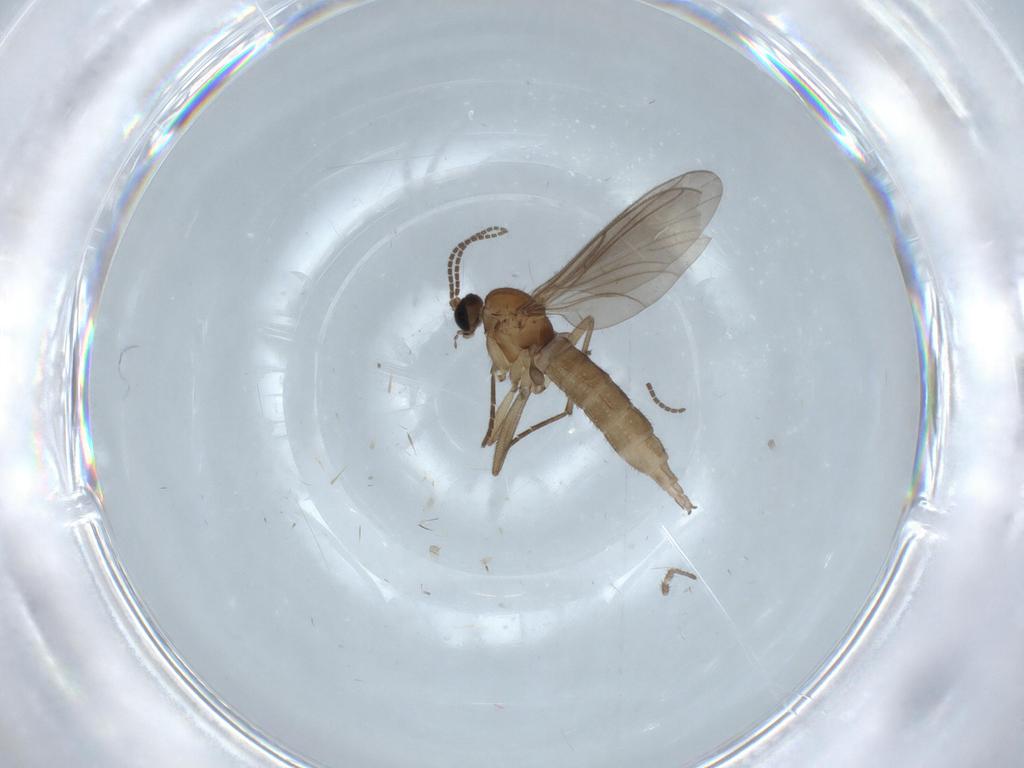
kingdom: Animalia
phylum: Arthropoda
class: Insecta
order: Diptera
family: Sciaridae
